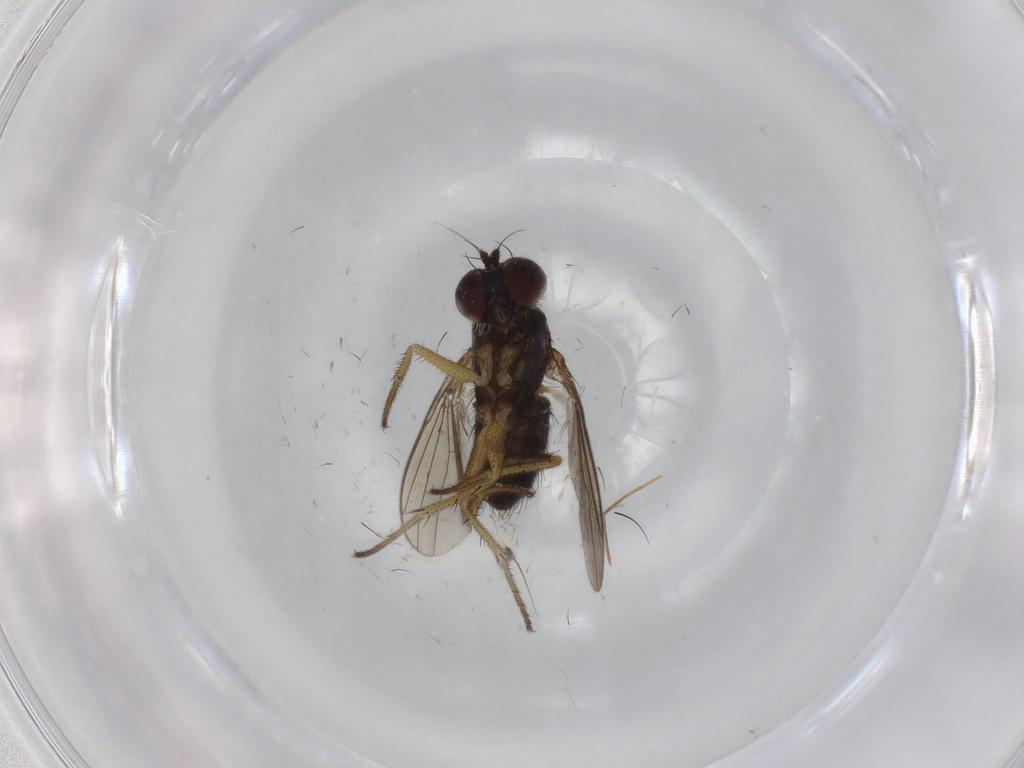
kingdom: Animalia
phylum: Arthropoda
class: Insecta
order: Diptera
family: Dolichopodidae
